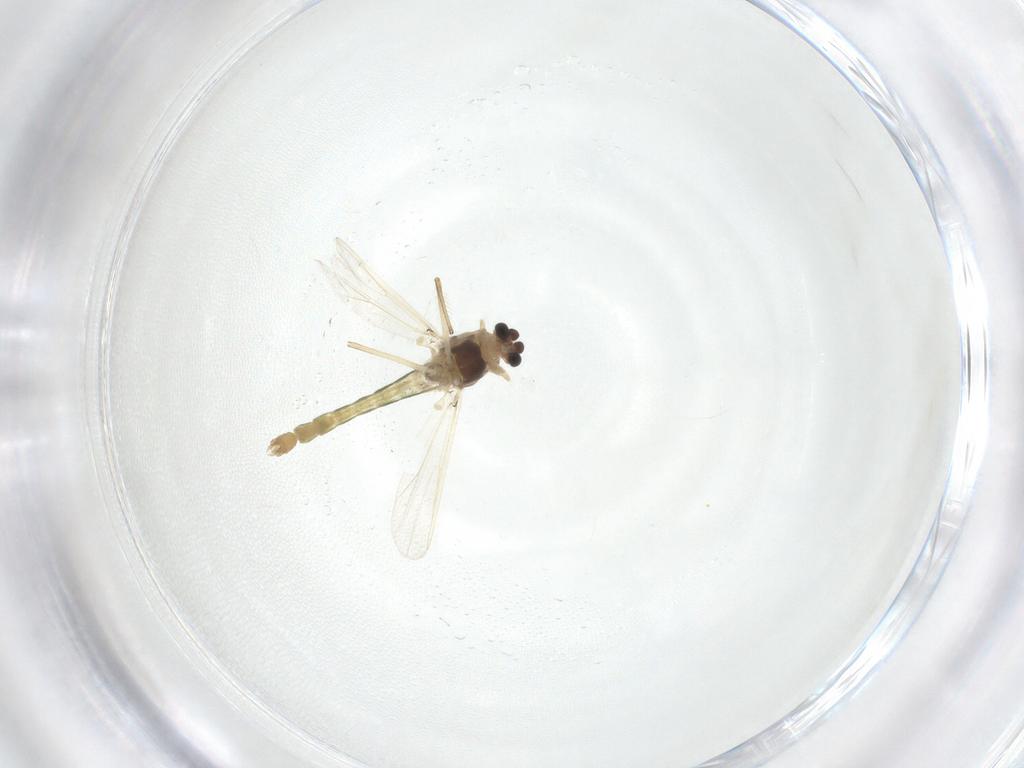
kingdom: Animalia
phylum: Arthropoda
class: Insecta
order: Diptera
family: Chironomidae
